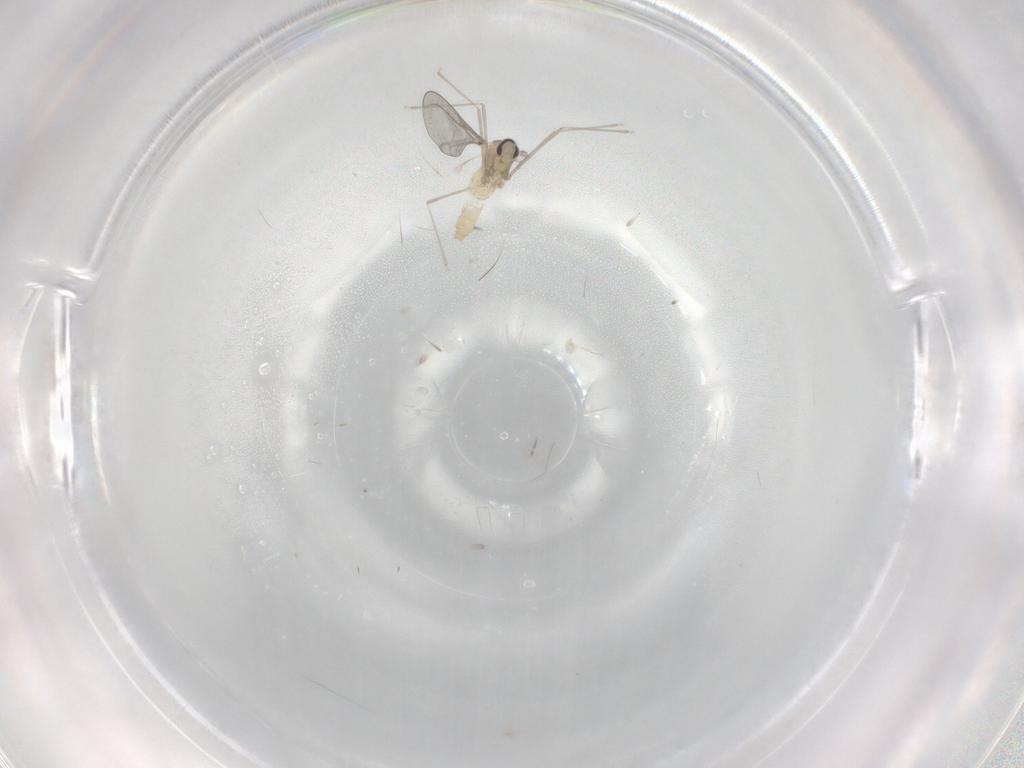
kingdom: Animalia
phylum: Arthropoda
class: Insecta
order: Diptera
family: Cecidomyiidae
